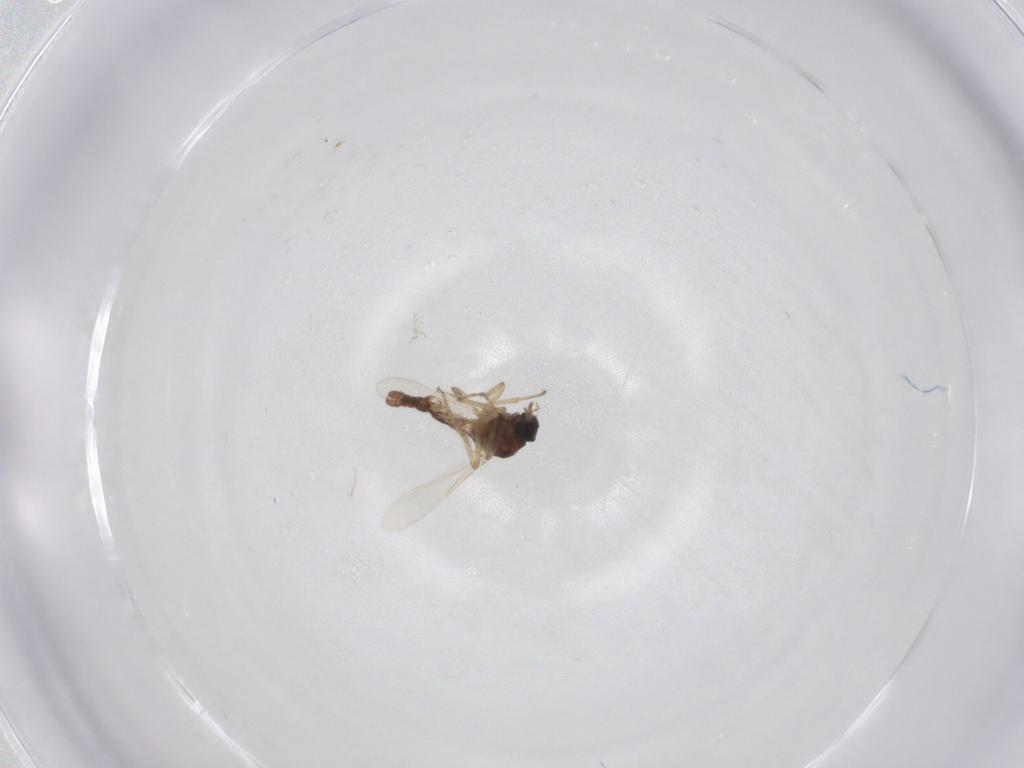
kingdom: Animalia
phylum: Arthropoda
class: Insecta
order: Diptera
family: Ceratopogonidae
